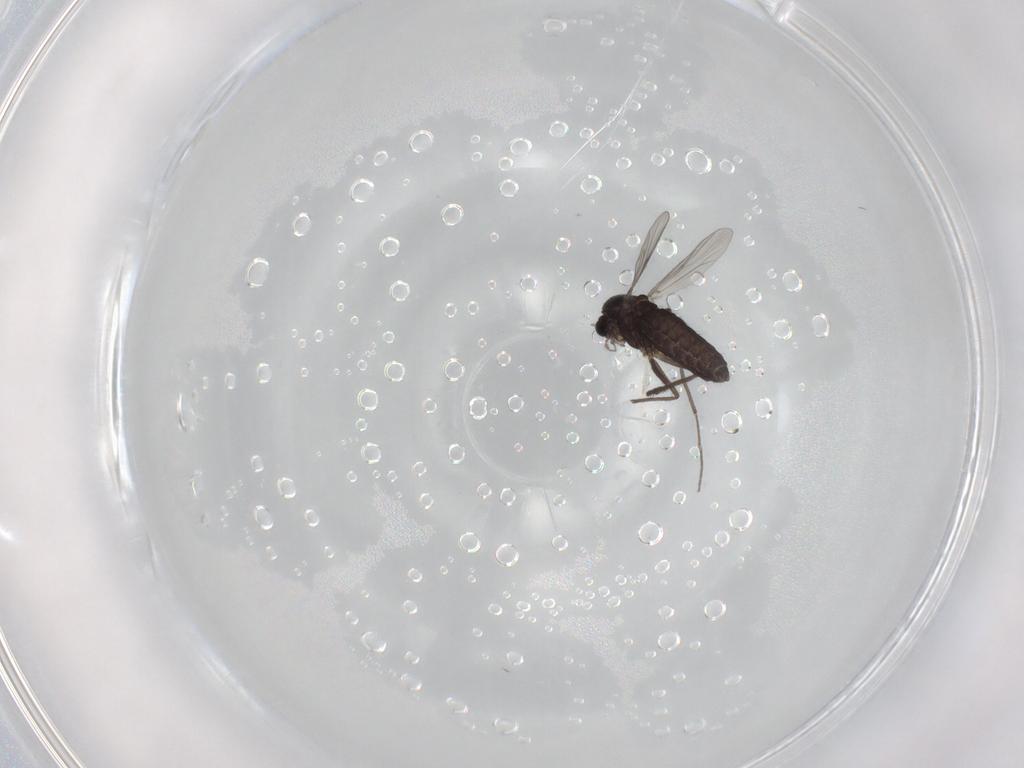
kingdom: Animalia
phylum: Arthropoda
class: Insecta
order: Diptera
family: Chironomidae
